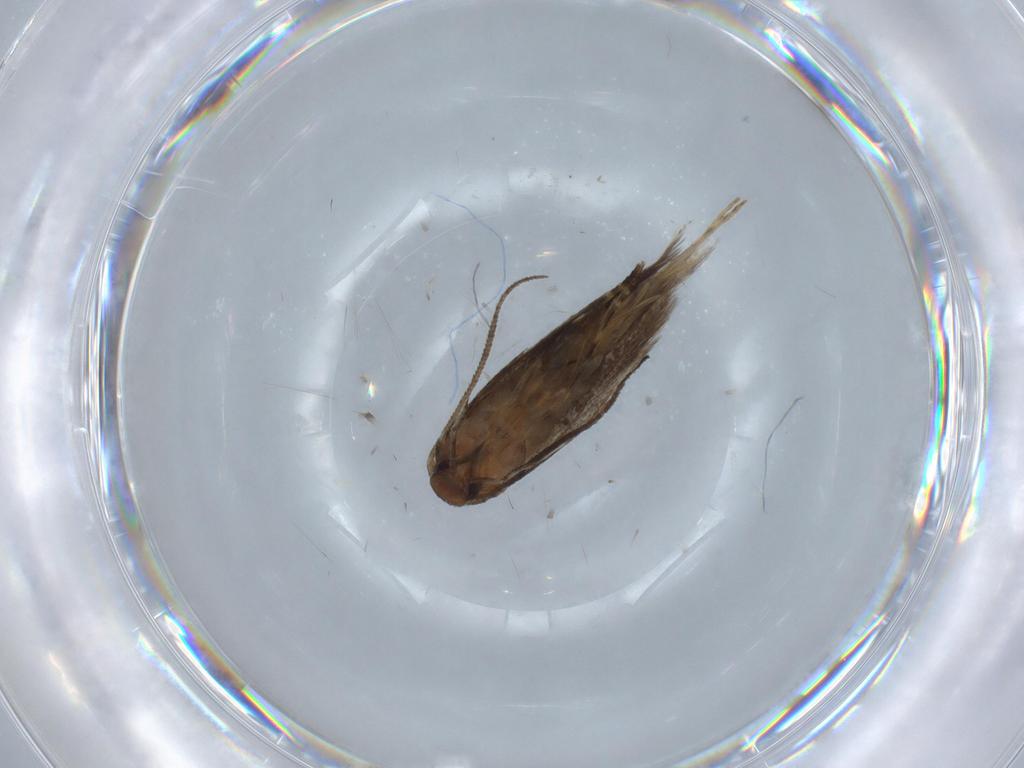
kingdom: Animalia
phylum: Arthropoda
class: Insecta
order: Lepidoptera
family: Elachistidae
